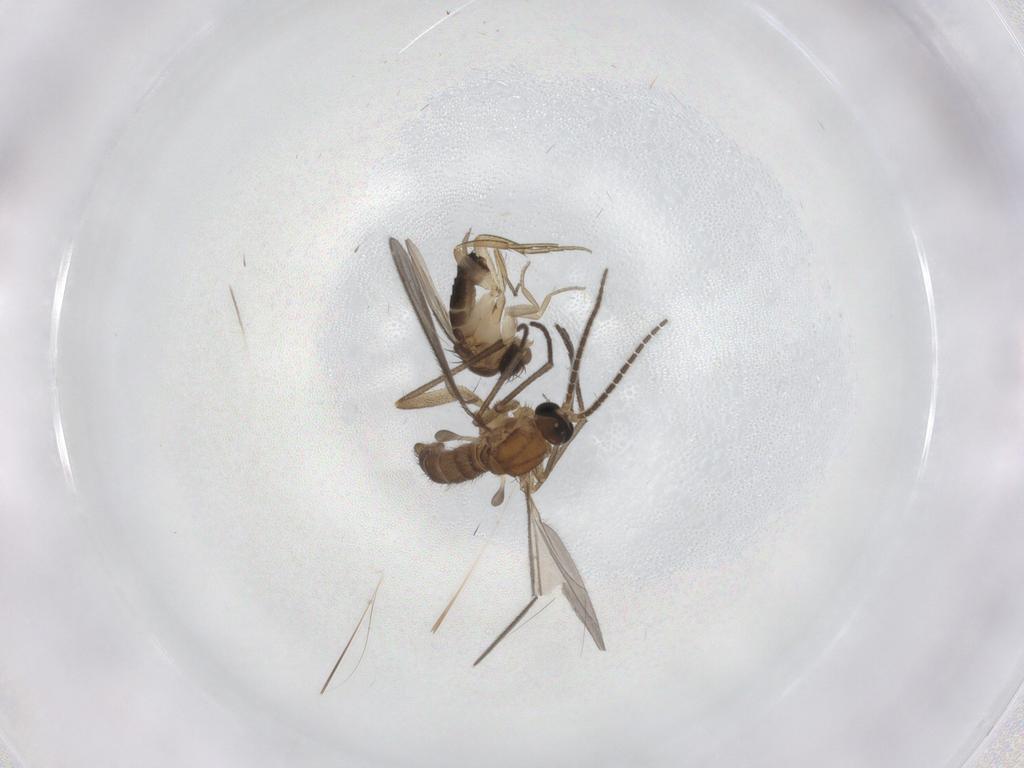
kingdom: Animalia
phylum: Arthropoda
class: Insecta
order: Diptera
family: Sciaridae
